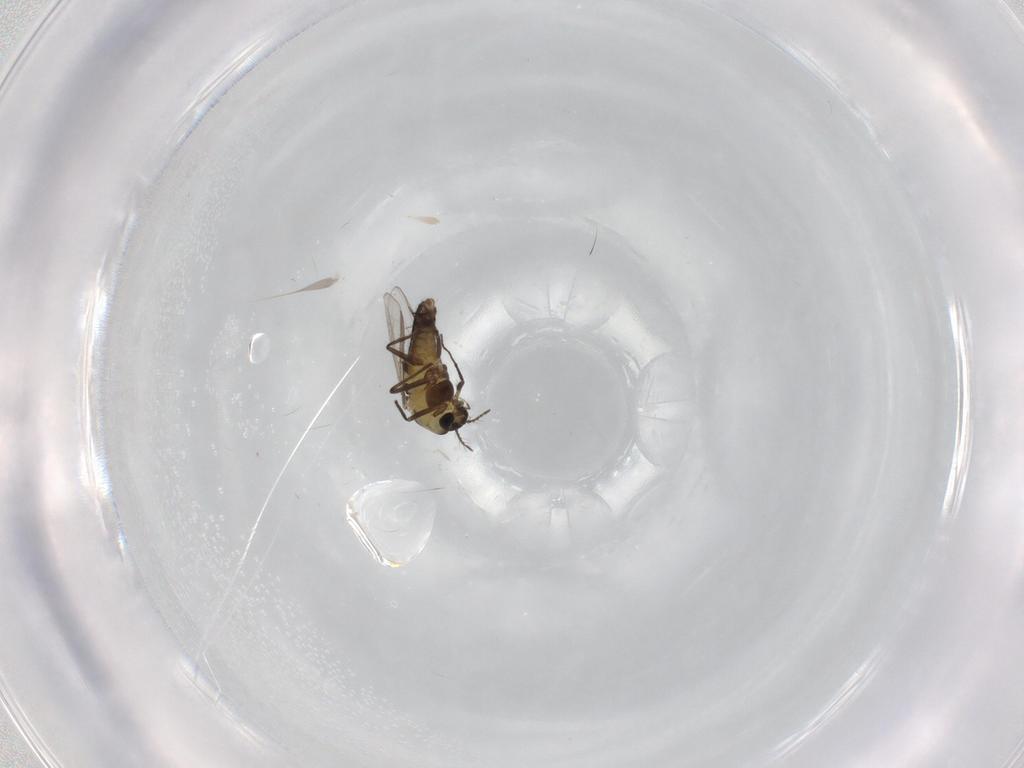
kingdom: Animalia
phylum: Arthropoda
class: Insecta
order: Diptera
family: Chironomidae
